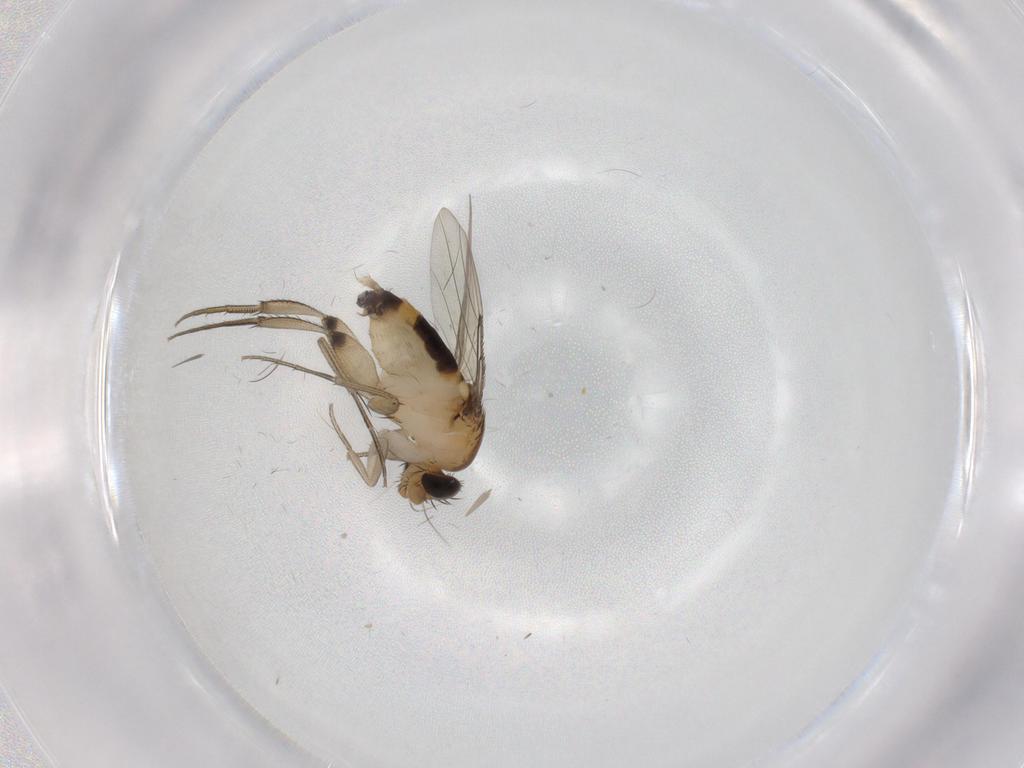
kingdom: Animalia
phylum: Arthropoda
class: Insecta
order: Diptera
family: Phoridae
